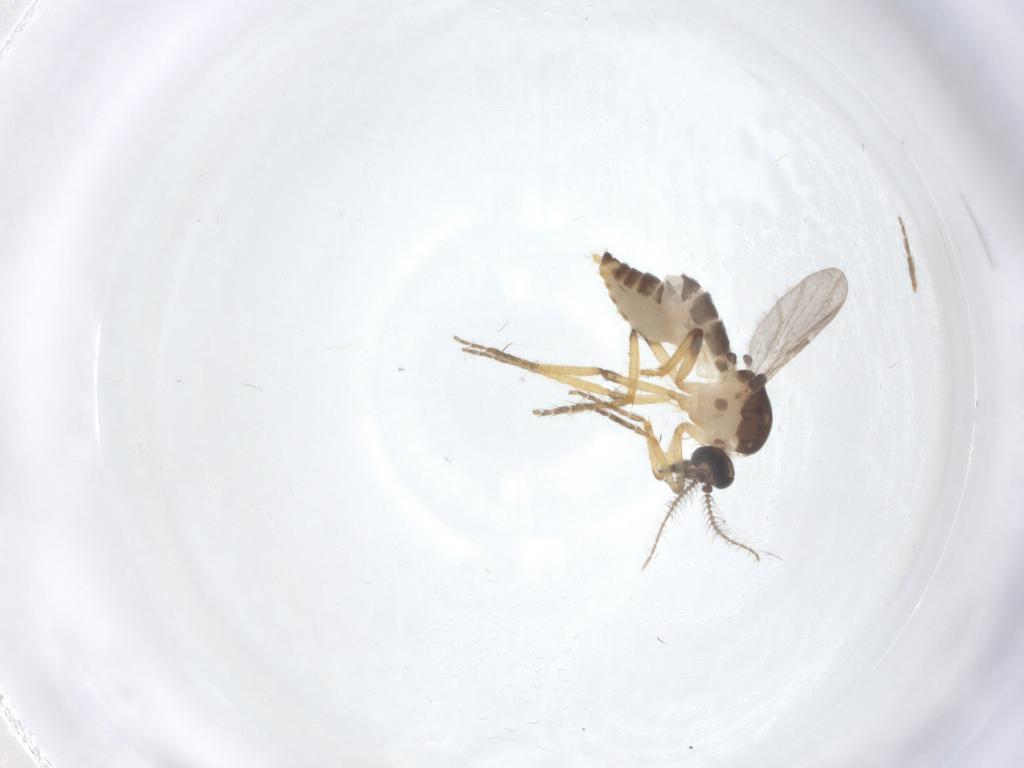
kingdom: Animalia
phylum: Arthropoda
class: Insecta
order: Diptera
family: Ceratopogonidae
